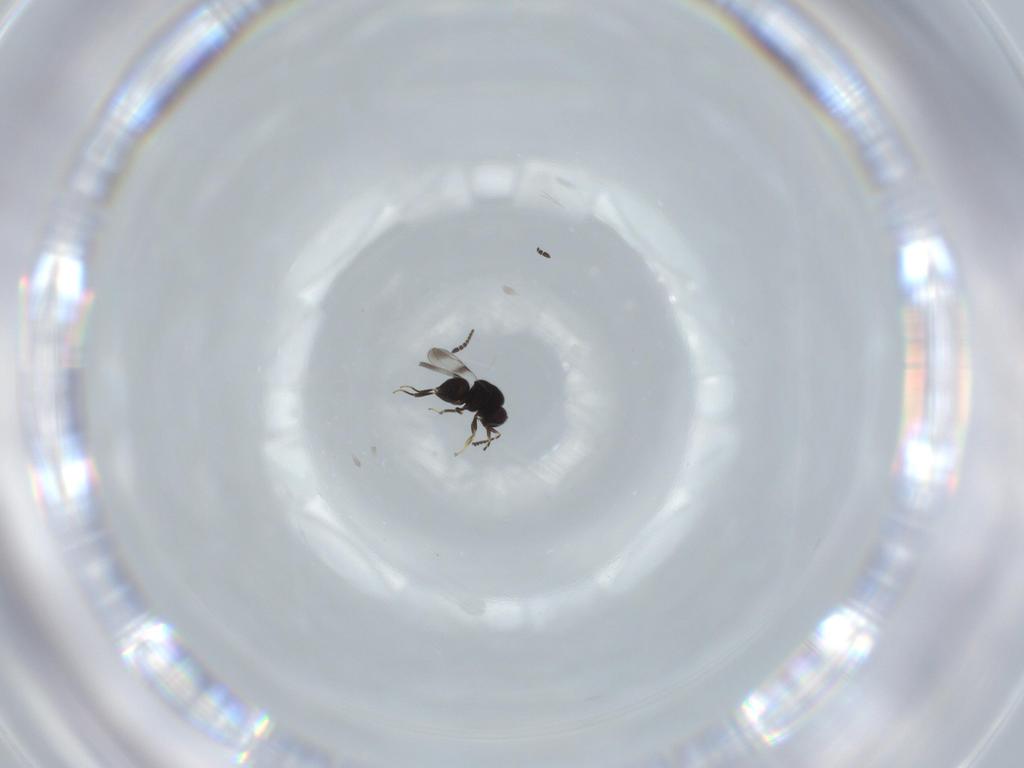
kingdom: Animalia
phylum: Arthropoda
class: Insecta
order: Hymenoptera
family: Ceraphronidae
